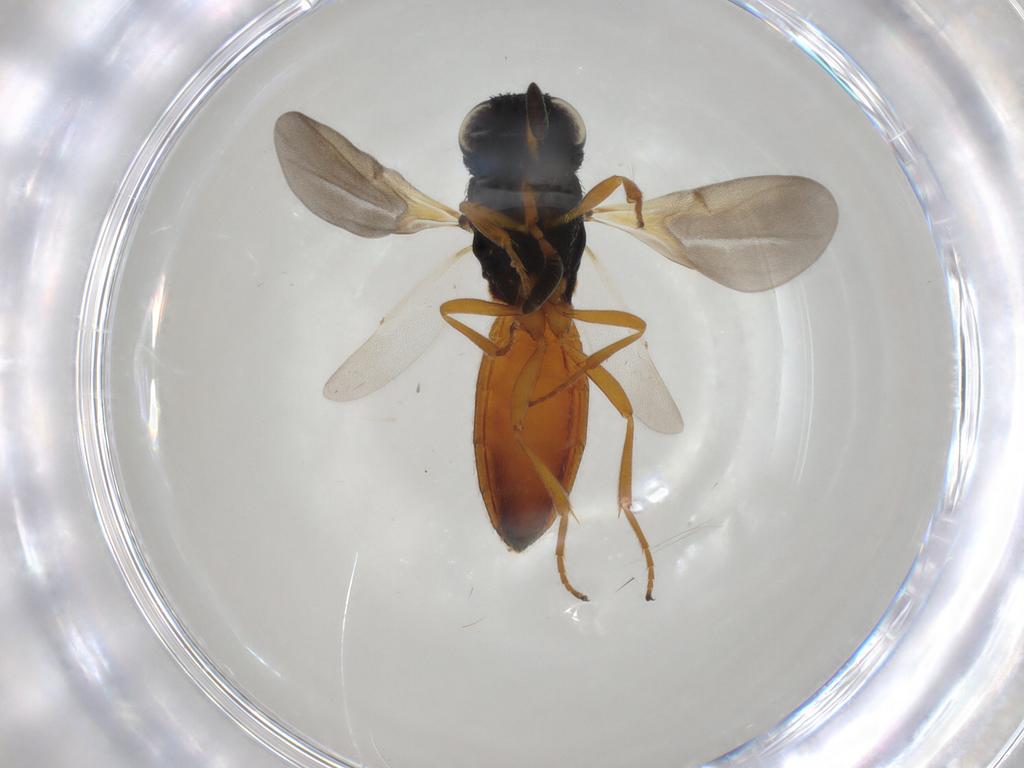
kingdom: Animalia
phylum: Arthropoda
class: Insecta
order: Hymenoptera
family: Scelionidae
